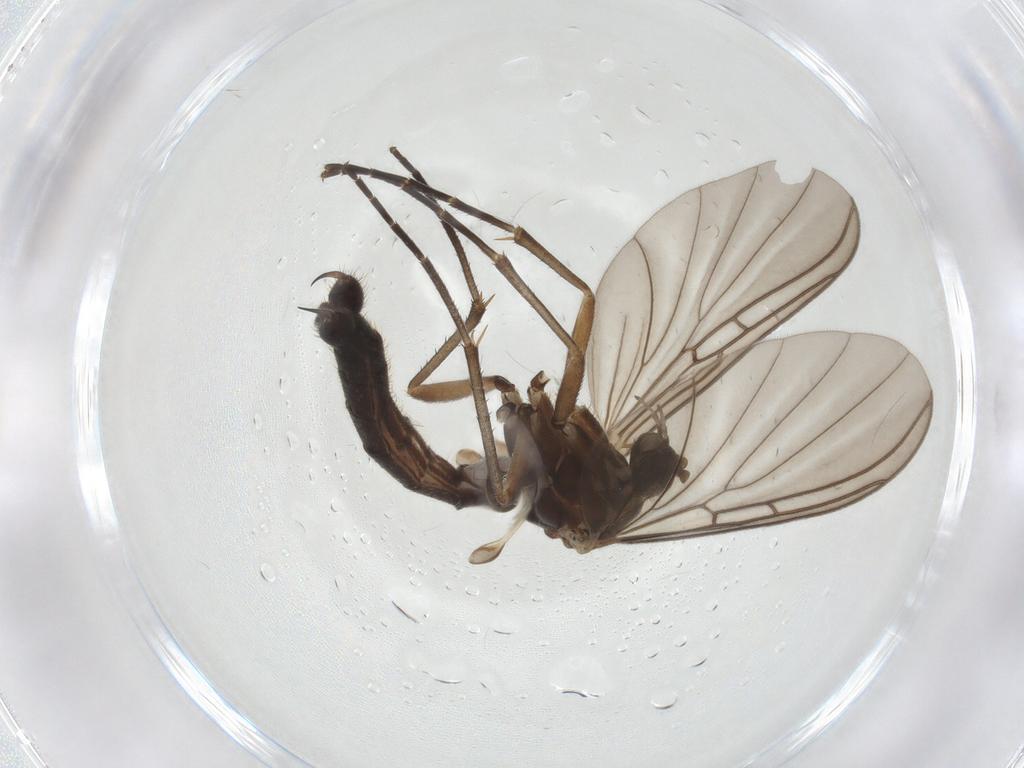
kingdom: Animalia
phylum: Arthropoda
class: Insecta
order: Diptera
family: Mycetophilidae
